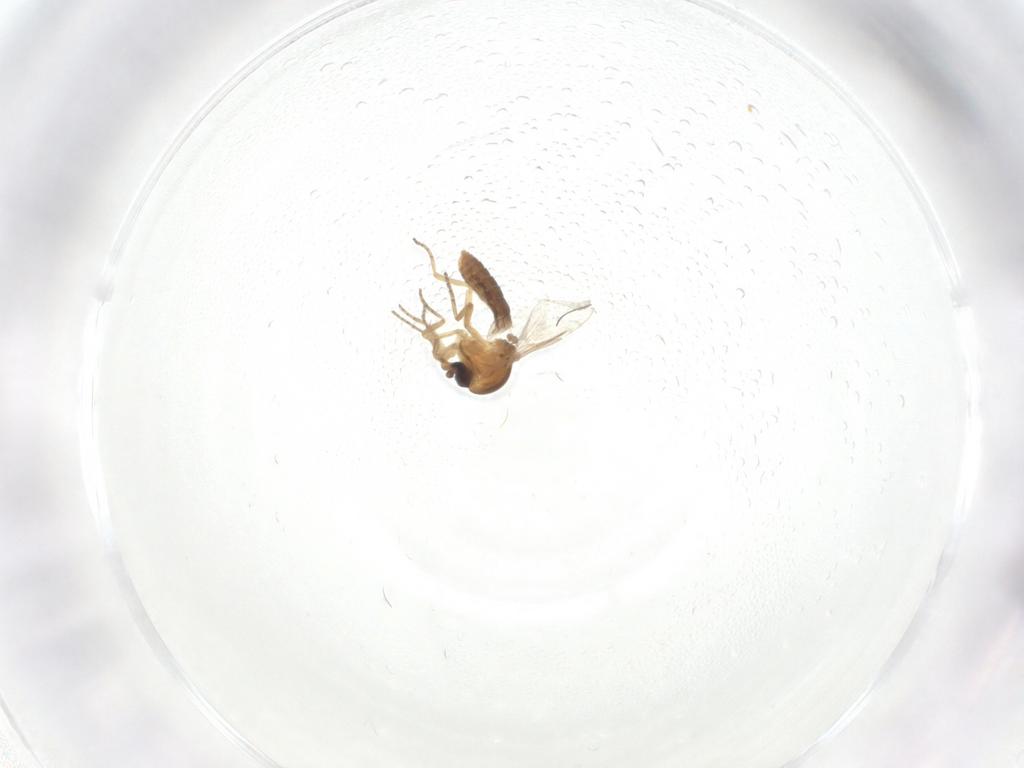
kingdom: Animalia
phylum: Arthropoda
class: Insecta
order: Diptera
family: Ceratopogonidae
